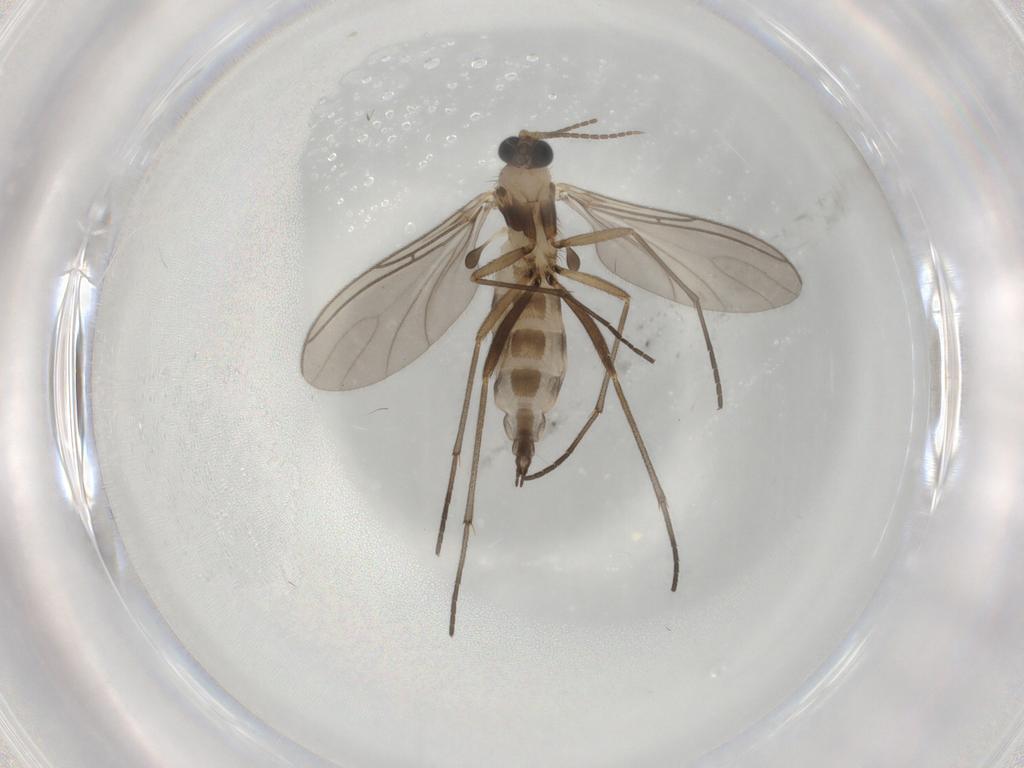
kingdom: Animalia
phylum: Arthropoda
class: Insecta
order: Diptera
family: Sciaridae
